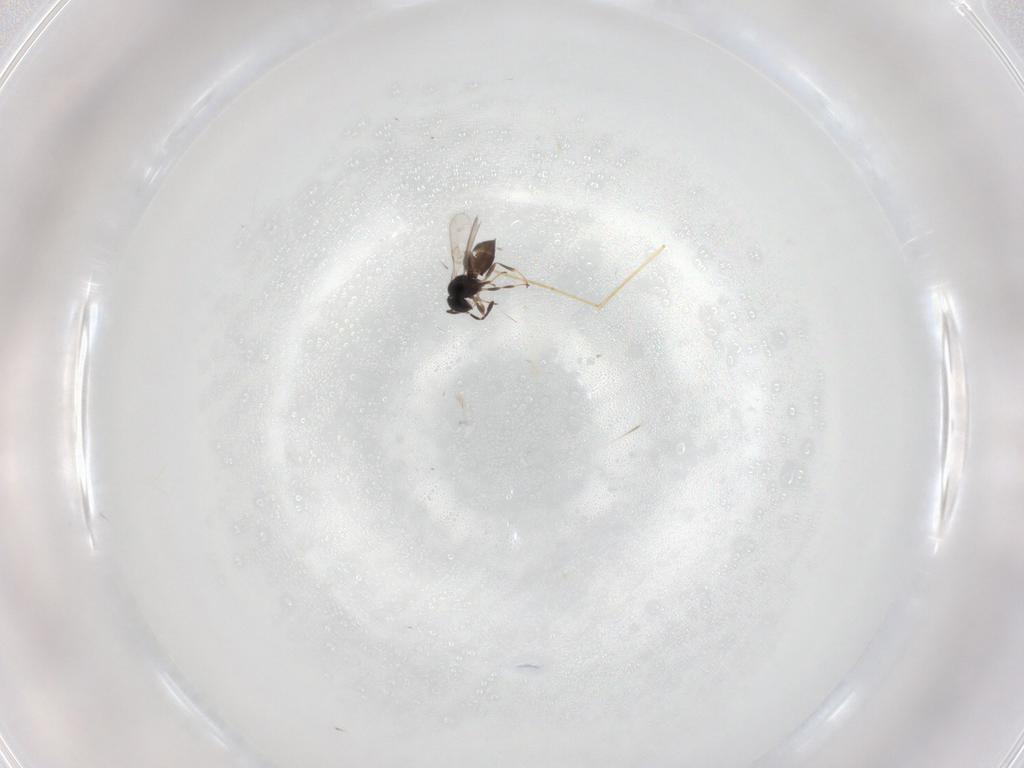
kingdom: Animalia
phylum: Arthropoda
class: Insecta
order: Hymenoptera
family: Scelionidae
